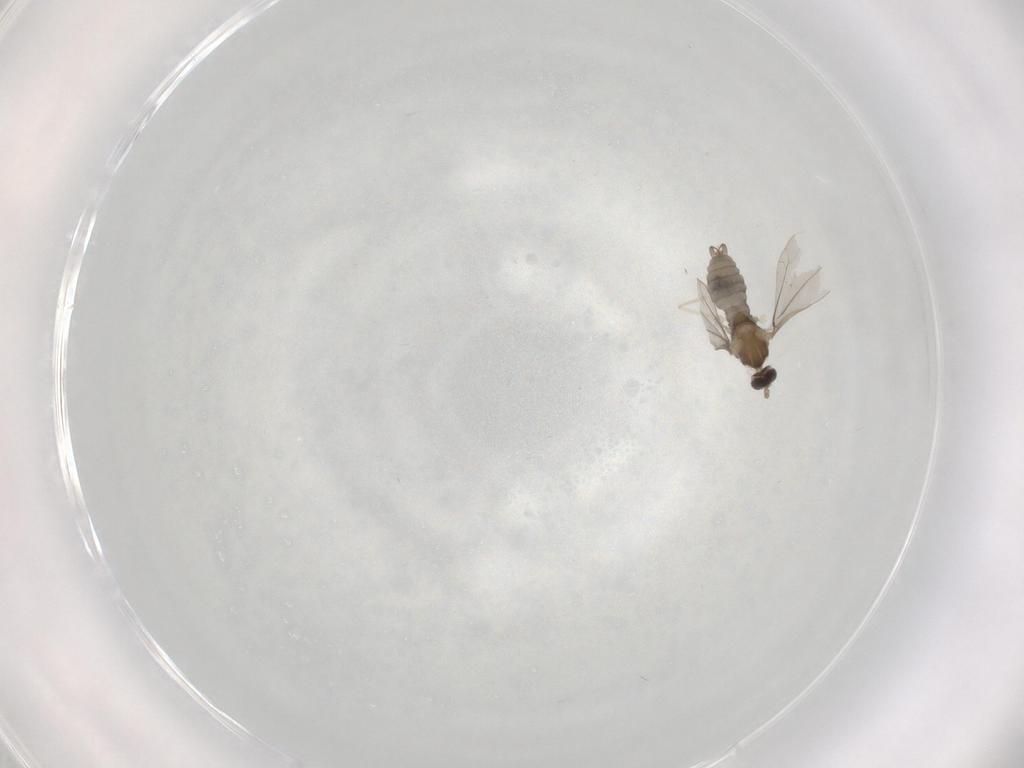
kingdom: Animalia
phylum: Arthropoda
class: Insecta
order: Diptera
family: Cecidomyiidae
